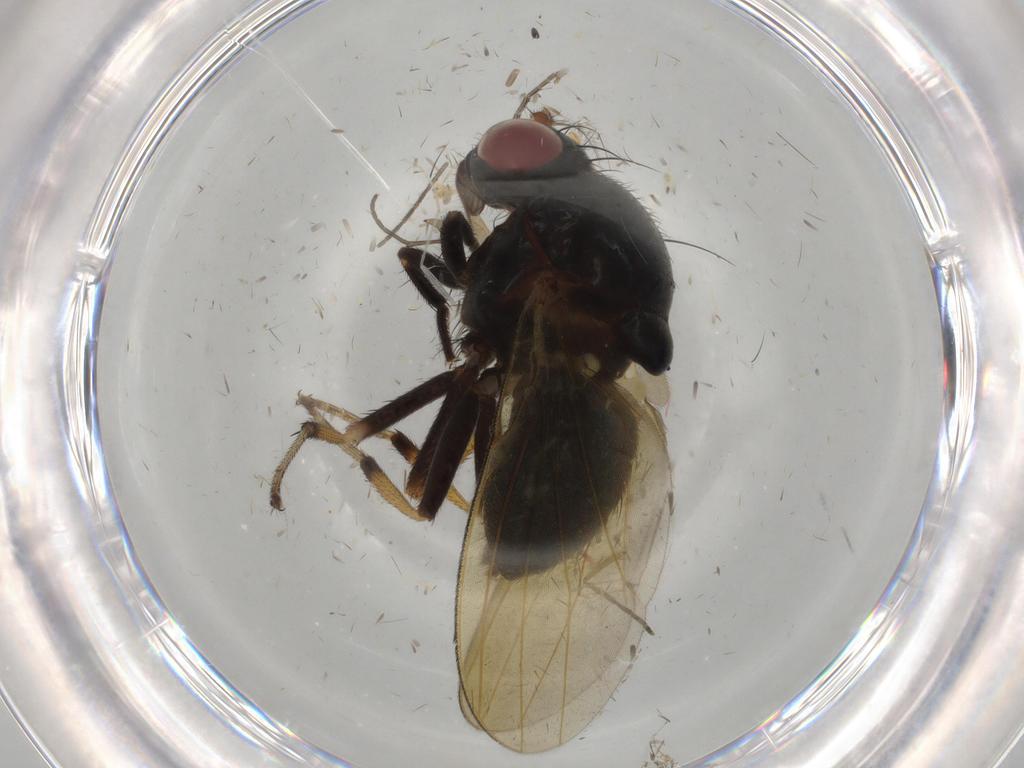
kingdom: Animalia
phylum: Arthropoda
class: Insecta
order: Diptera
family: Phoridae
